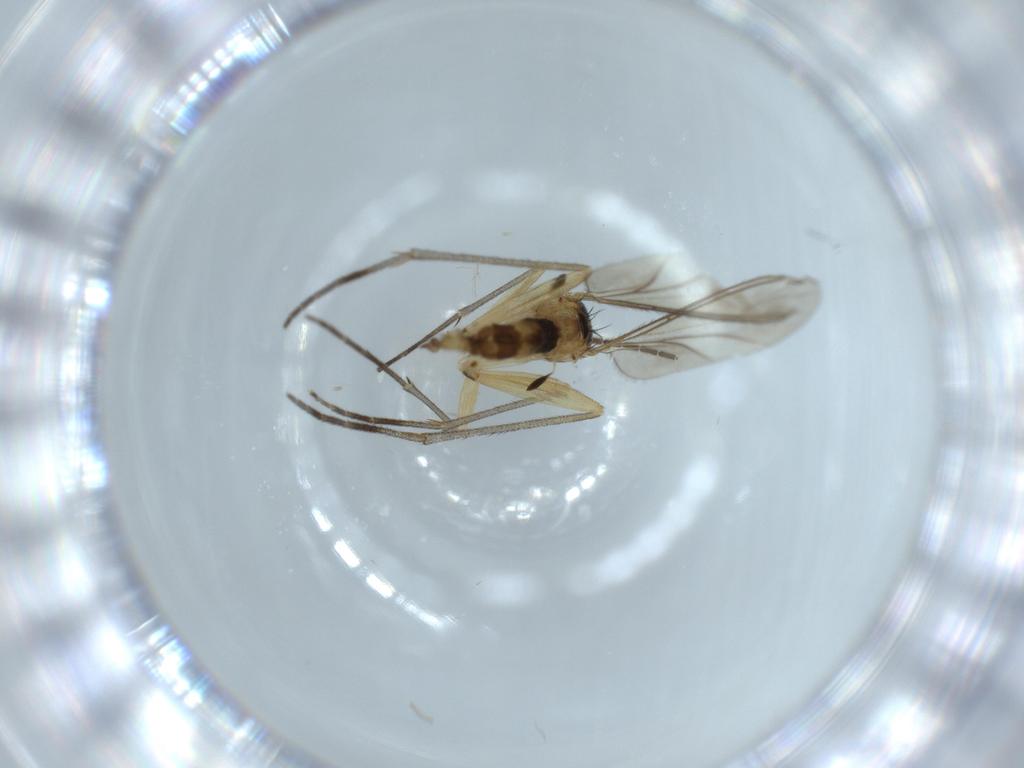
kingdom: Animalia
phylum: Arthropoda
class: Insecta
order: Diptera
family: Sciaridae
